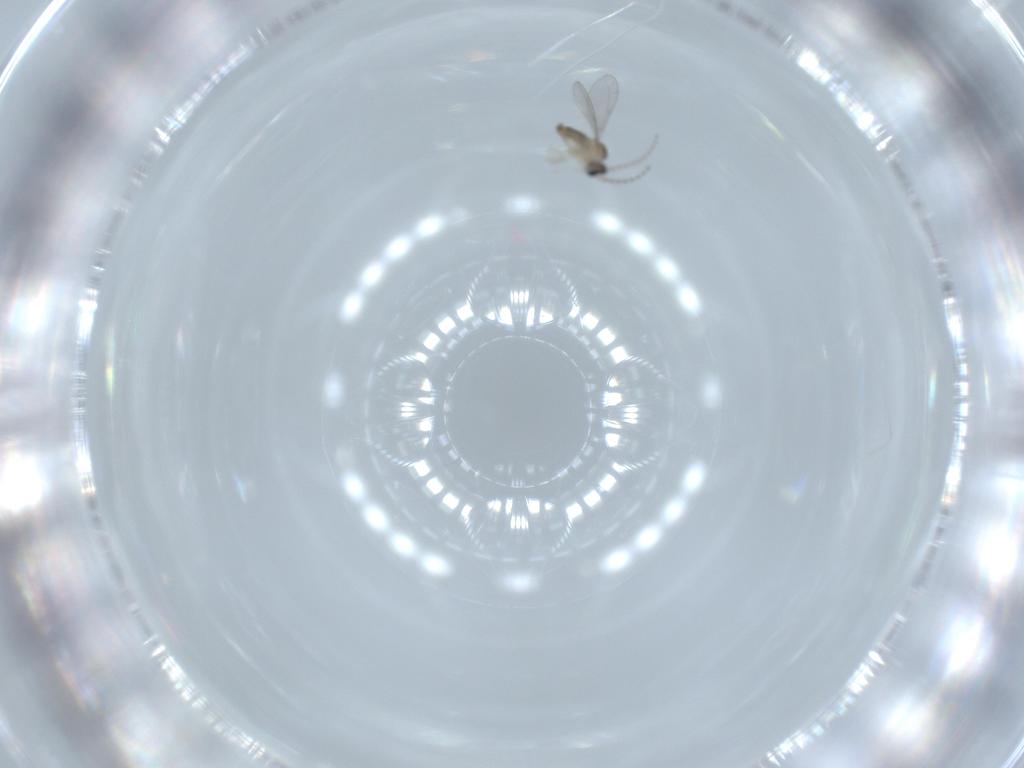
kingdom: Animalia
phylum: Arthropoda
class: Insecta
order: Diptera
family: Cecidomyiidae
